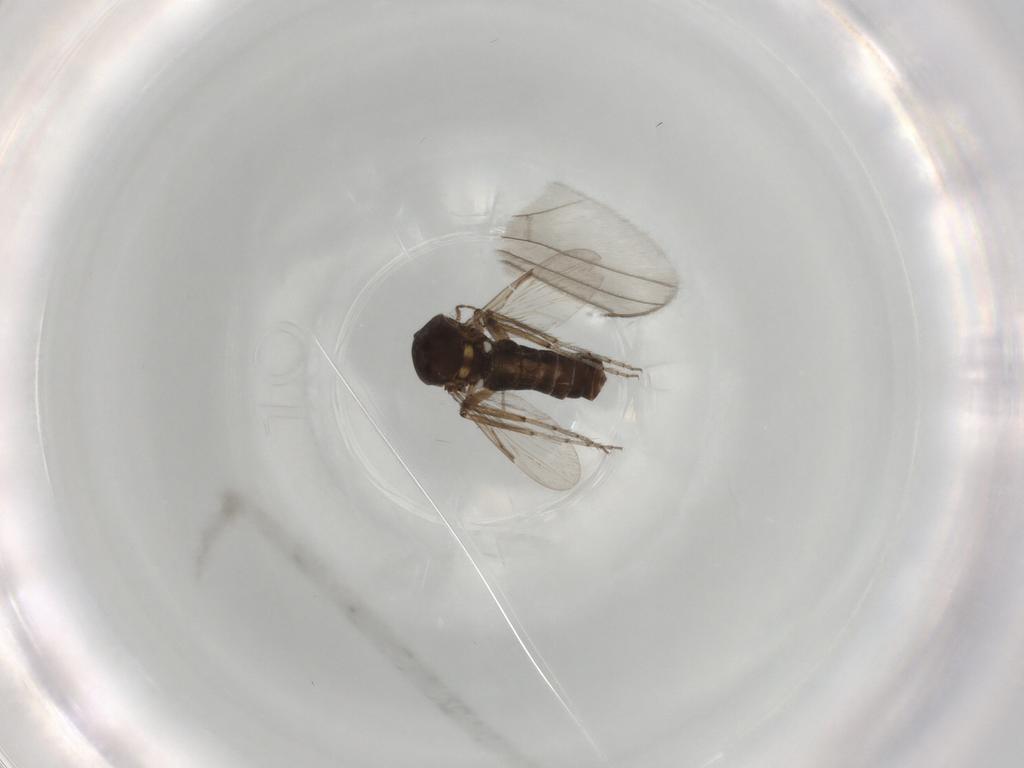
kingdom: Animalia
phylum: Arthropoda
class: Insecta
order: Diptera
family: Ceratopogonidae
